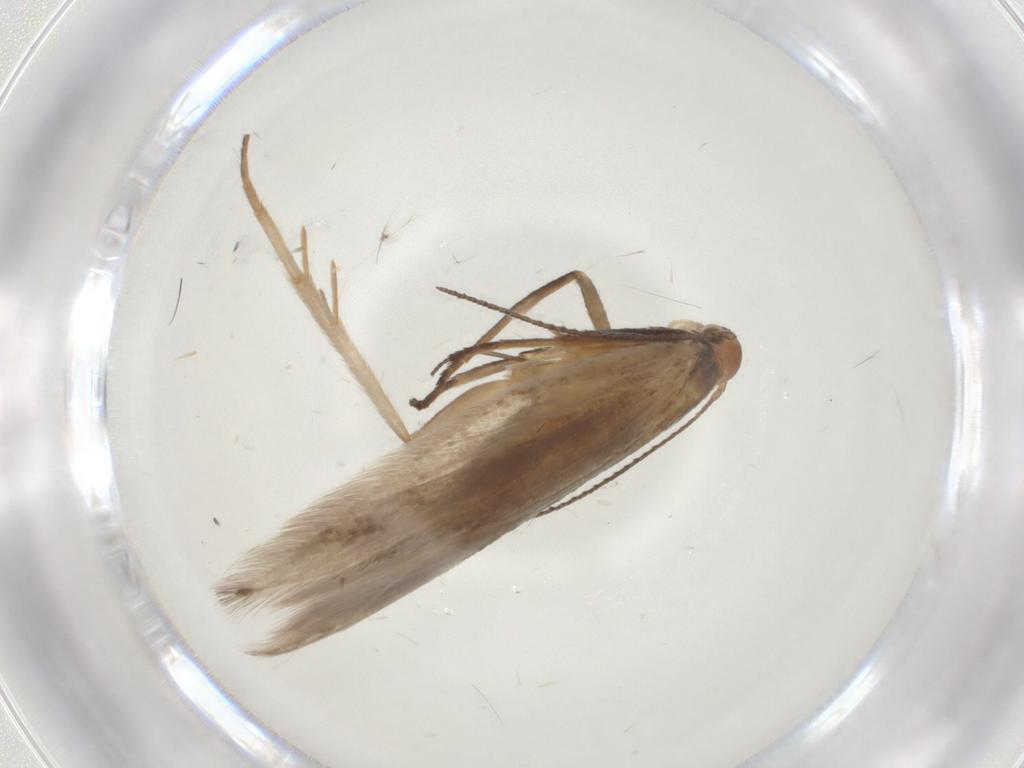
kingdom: Animalia
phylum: Arthropoda
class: Insecta
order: Lepidoptera
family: Gelechiidae
